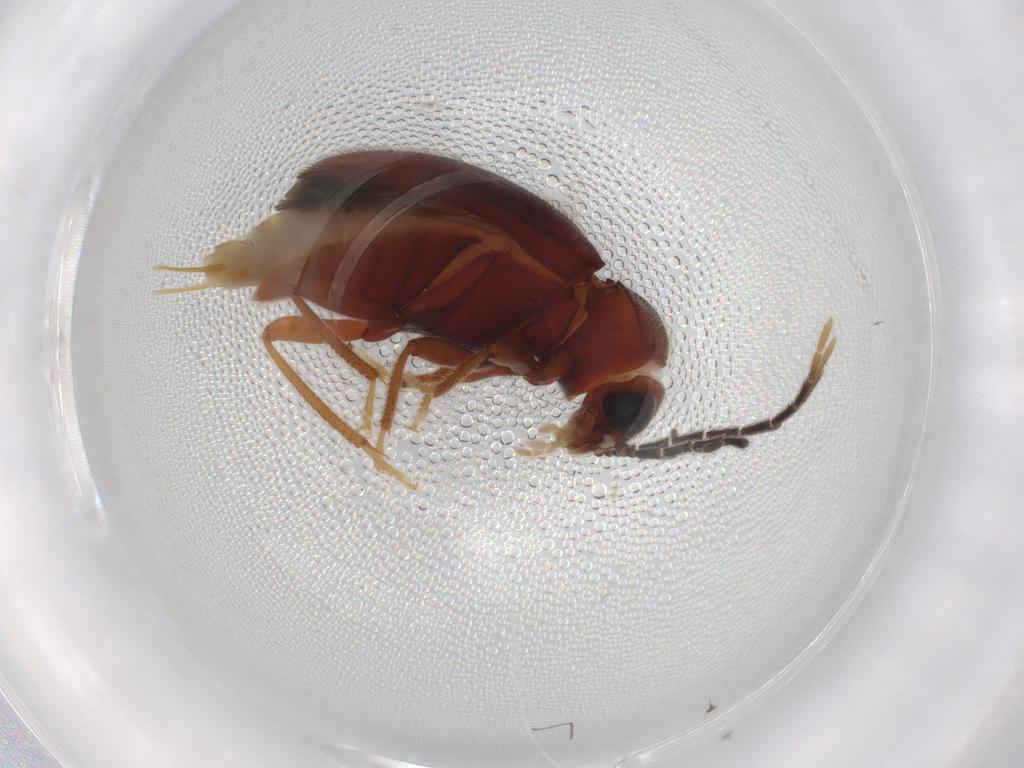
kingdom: Animalia
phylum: Arthropoda
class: Insecta
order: Coleoptera
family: Ptilodactylidae
